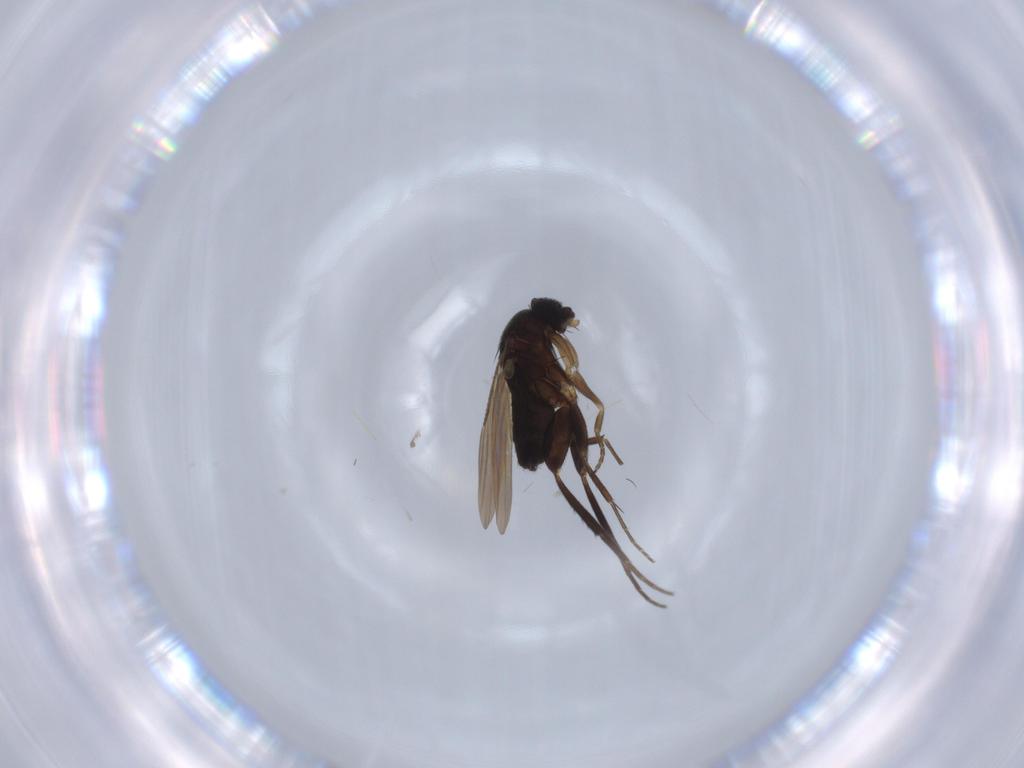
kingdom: Animalia
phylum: Arthropoda
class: Insecta
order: Diptera
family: Phoridae
